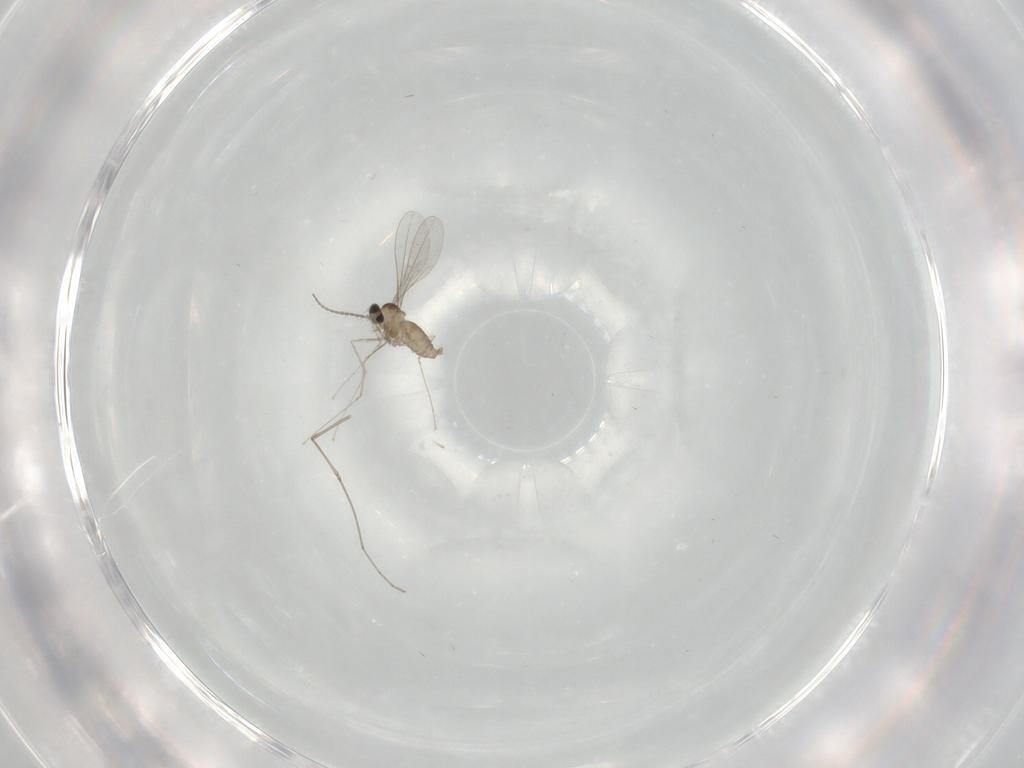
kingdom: Animalia
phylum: Arthropoda
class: Insecta
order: Diptera
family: Cecidomyiidae
